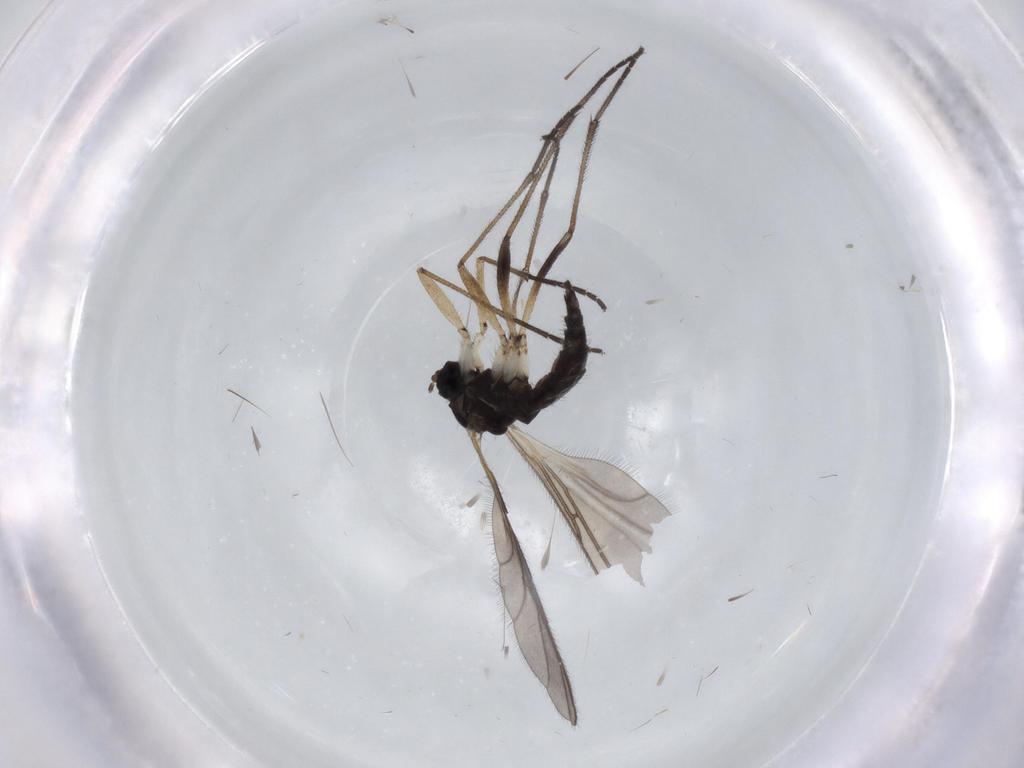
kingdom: Animalia
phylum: Arthropoda
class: Insecta
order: Diptera
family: Sciaridae
